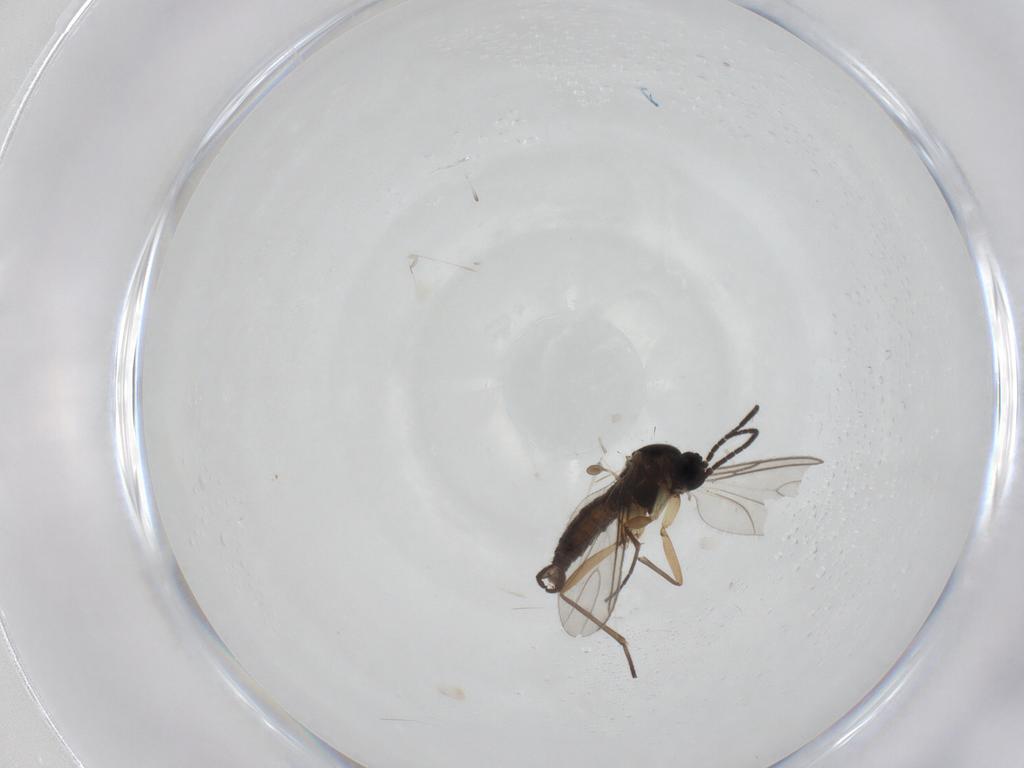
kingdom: Animalia
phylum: Arthropoda
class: Insecta
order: Diptera
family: Sciaridae
